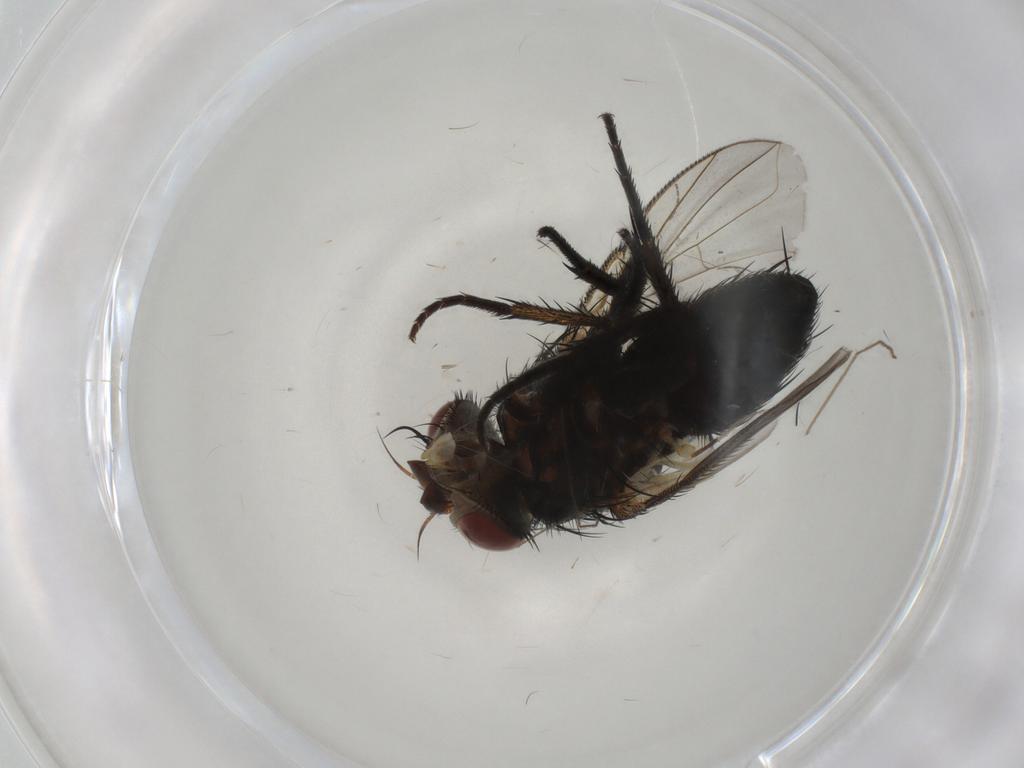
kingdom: Animalia
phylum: Arthropoda
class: Insecta
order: Diptera
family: Tachinidae
